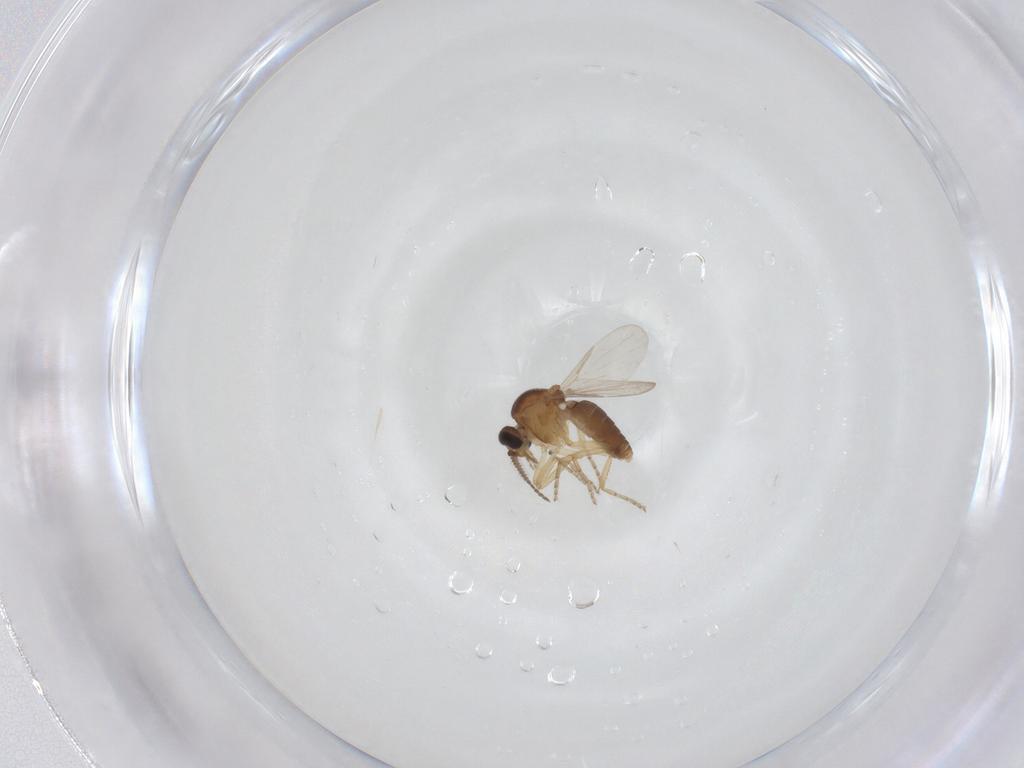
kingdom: Animalia
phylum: Arthropoda
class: Insecta
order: Diptera
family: Ceratopogonidae
